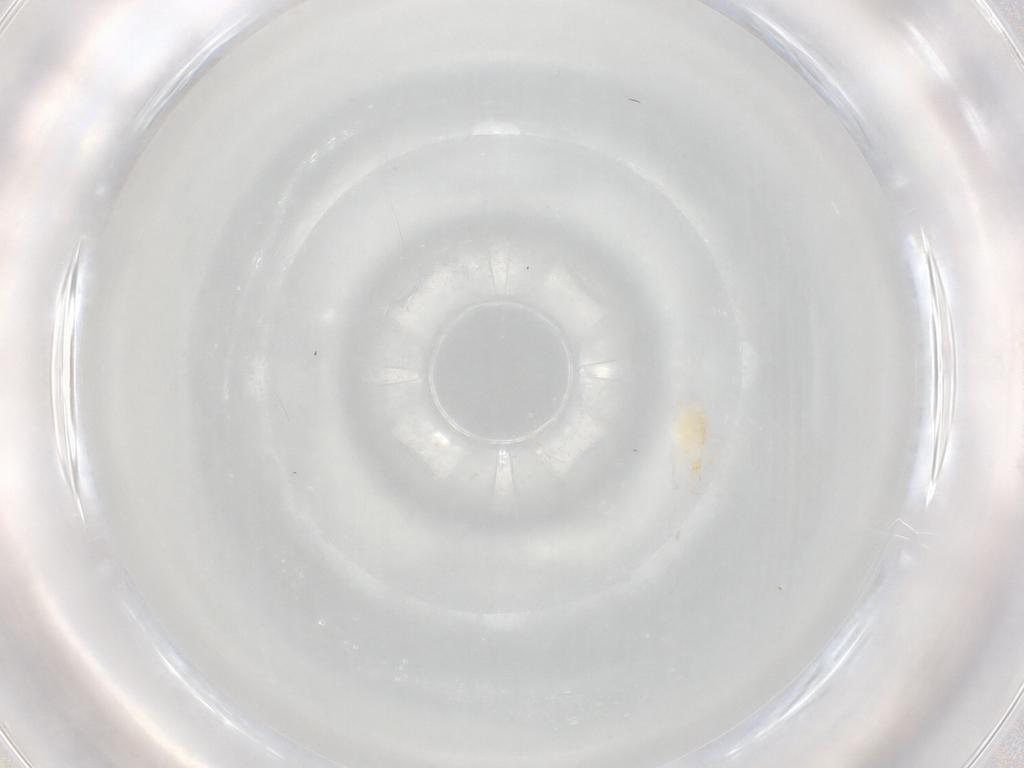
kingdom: Animalia
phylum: Arthropoda
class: Arachnida
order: Trombidiformes
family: Cunaxidae
